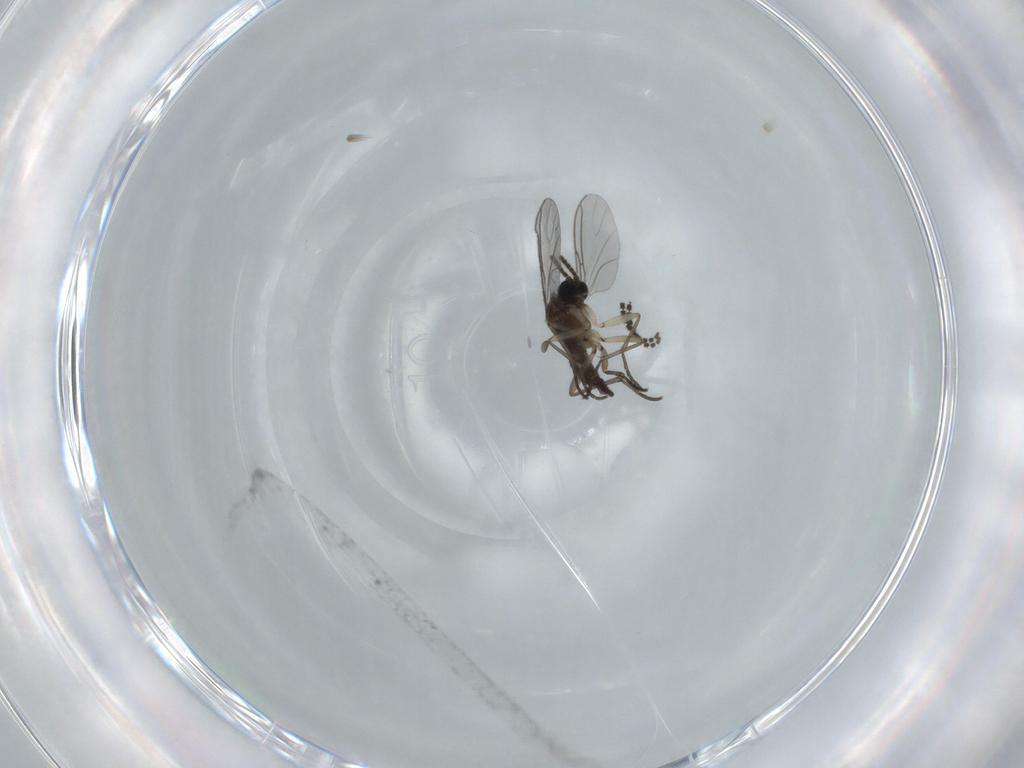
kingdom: Animalia
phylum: Arthropoda
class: Insecta
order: Diptera
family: Sciaridae
